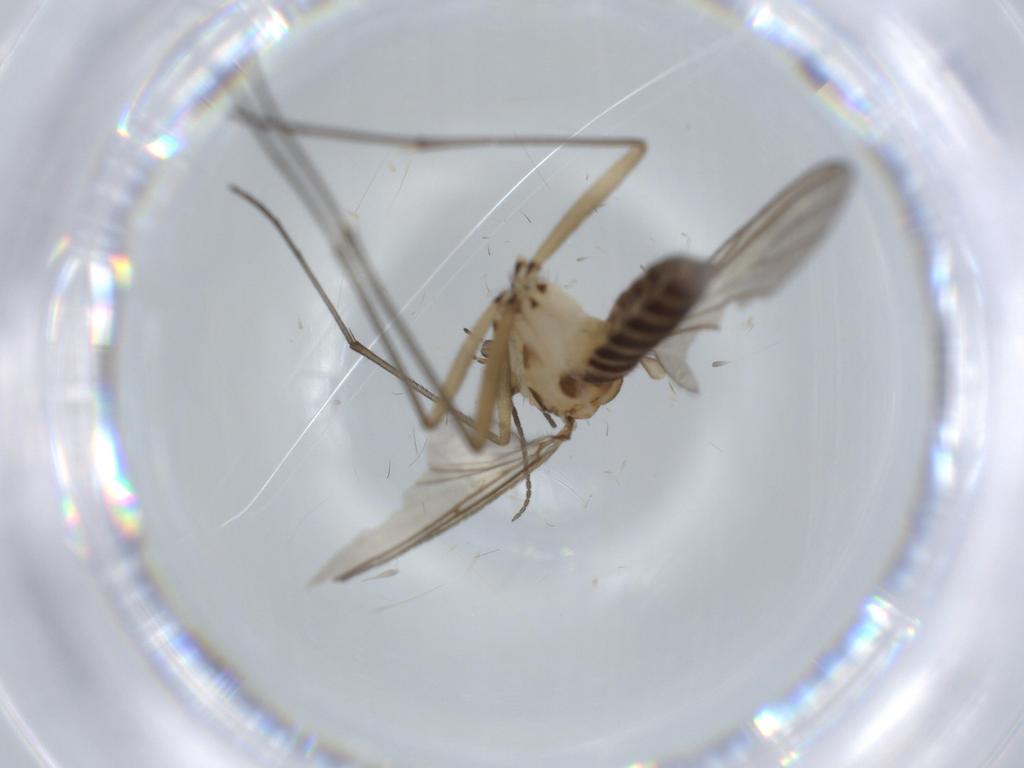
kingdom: Animalia
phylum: Arthropoda
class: Insecta
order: Diptera
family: Sciaridae
